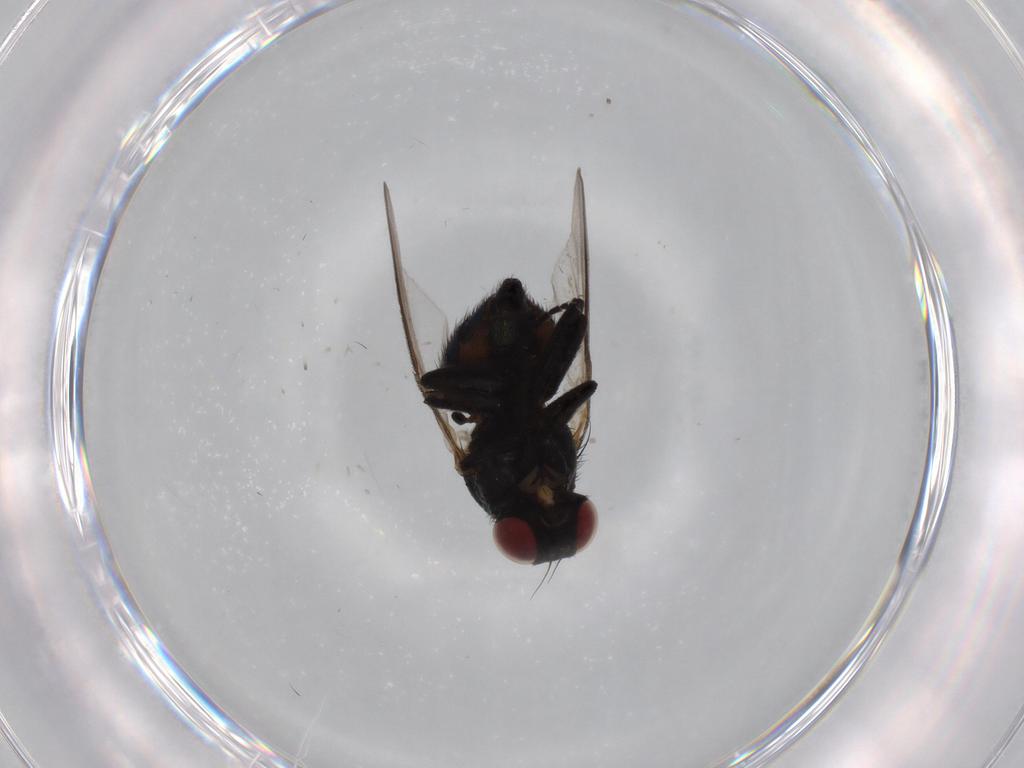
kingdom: Animalia
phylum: Arthropoda
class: Insecta
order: Diptera
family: Agromyzidae
